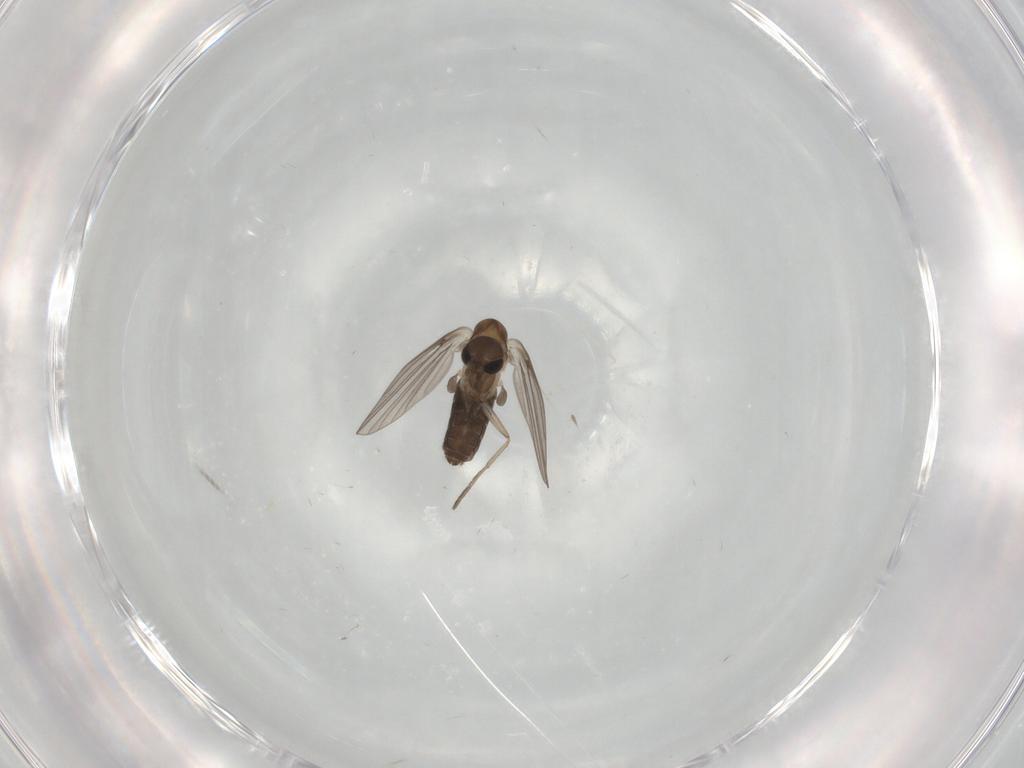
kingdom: Animalia
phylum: Arthropoda
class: Insecta
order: Diptera
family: Psychodidae
